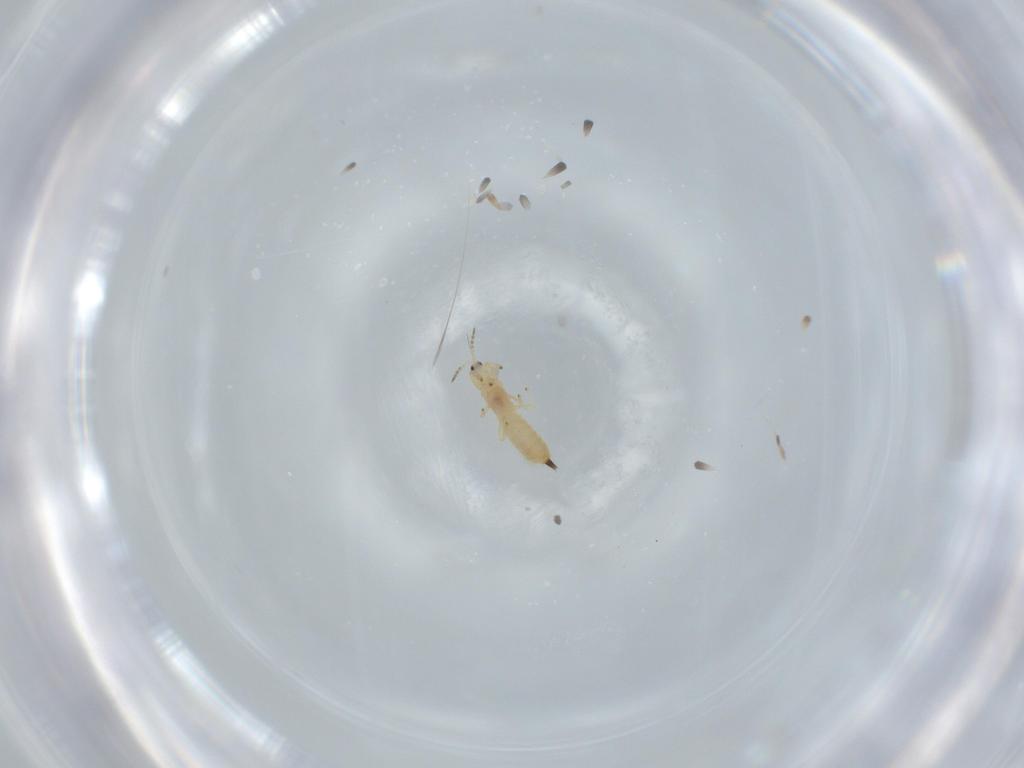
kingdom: Animalia
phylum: Arthropoda
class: Insecta
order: Thysanoptera
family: Phlaeothripidae
